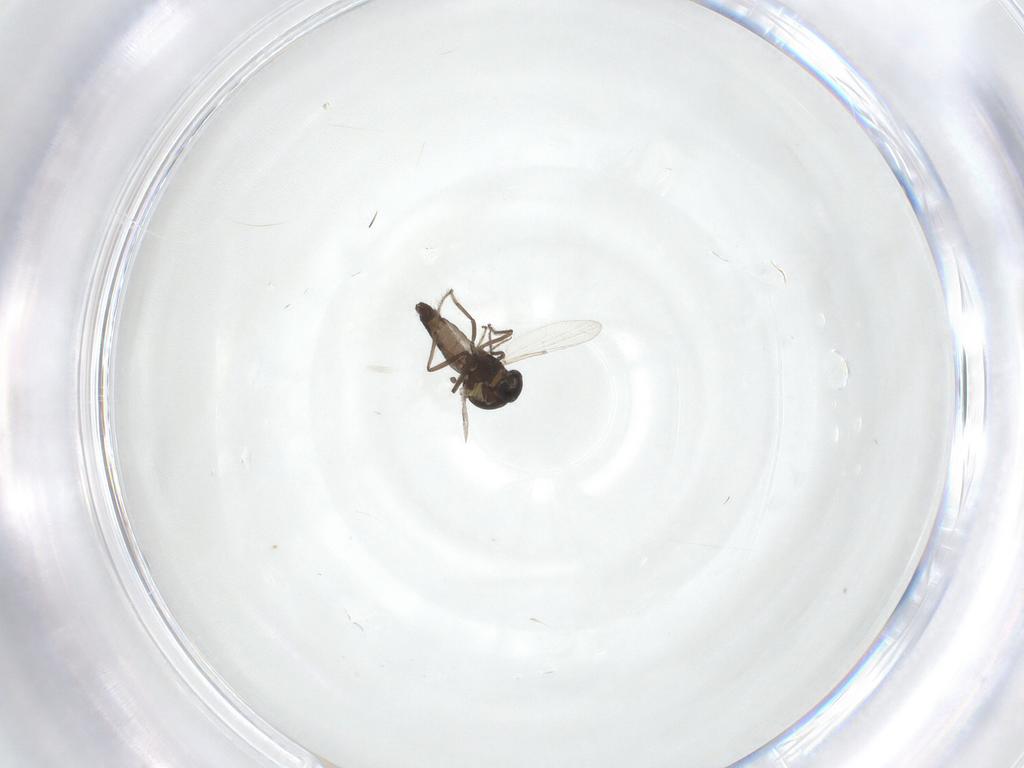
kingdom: Animalia
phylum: Arthropoda
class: Insecta
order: Diptera
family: Ceratopogonidae
